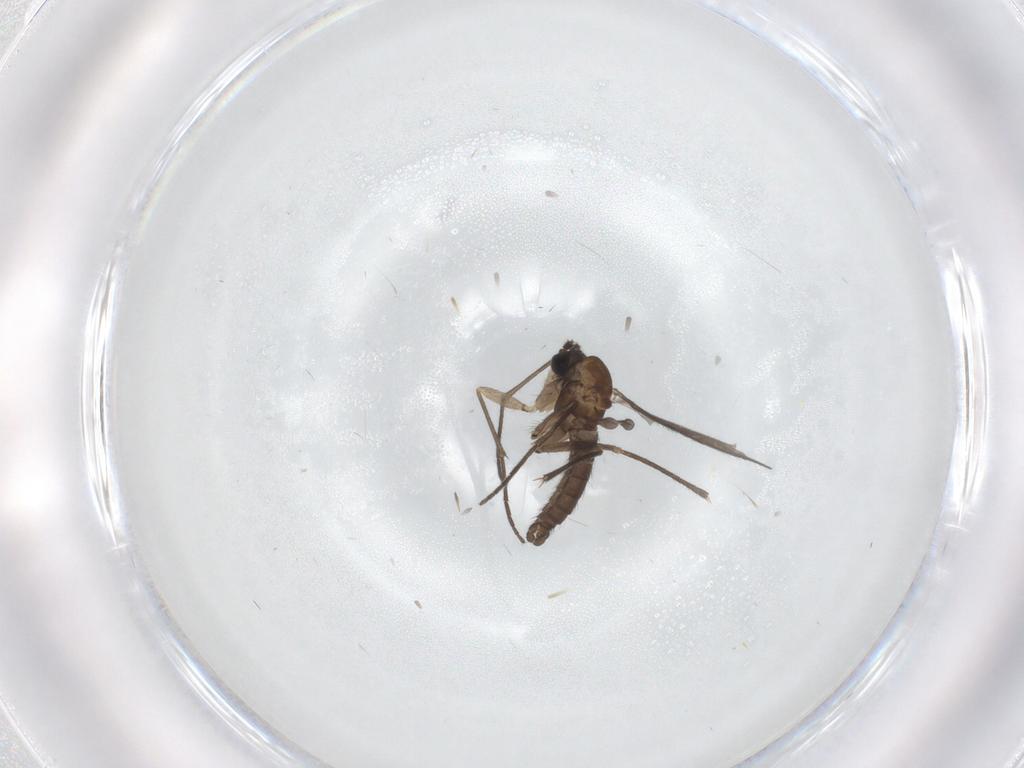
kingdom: Animalia
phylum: Arthropoda
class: Insecta
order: Diptera
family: Sciaridae
